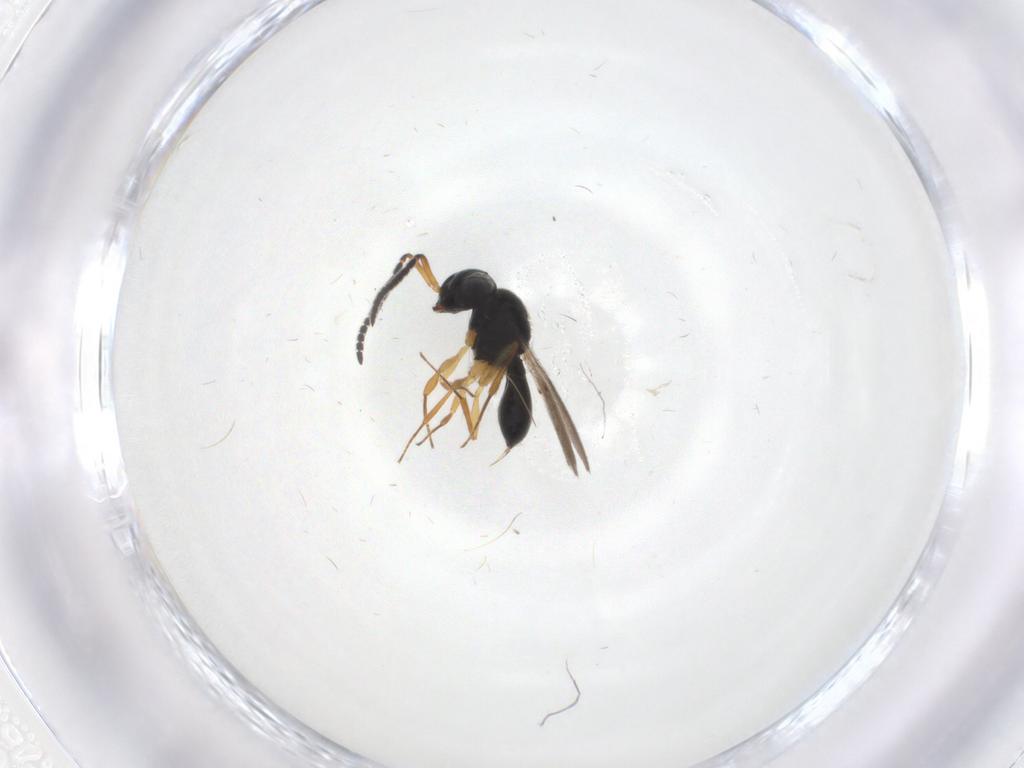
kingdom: Animalia
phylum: Arthropoda
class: Insecta
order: Hymenoptera
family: Scelionidae
